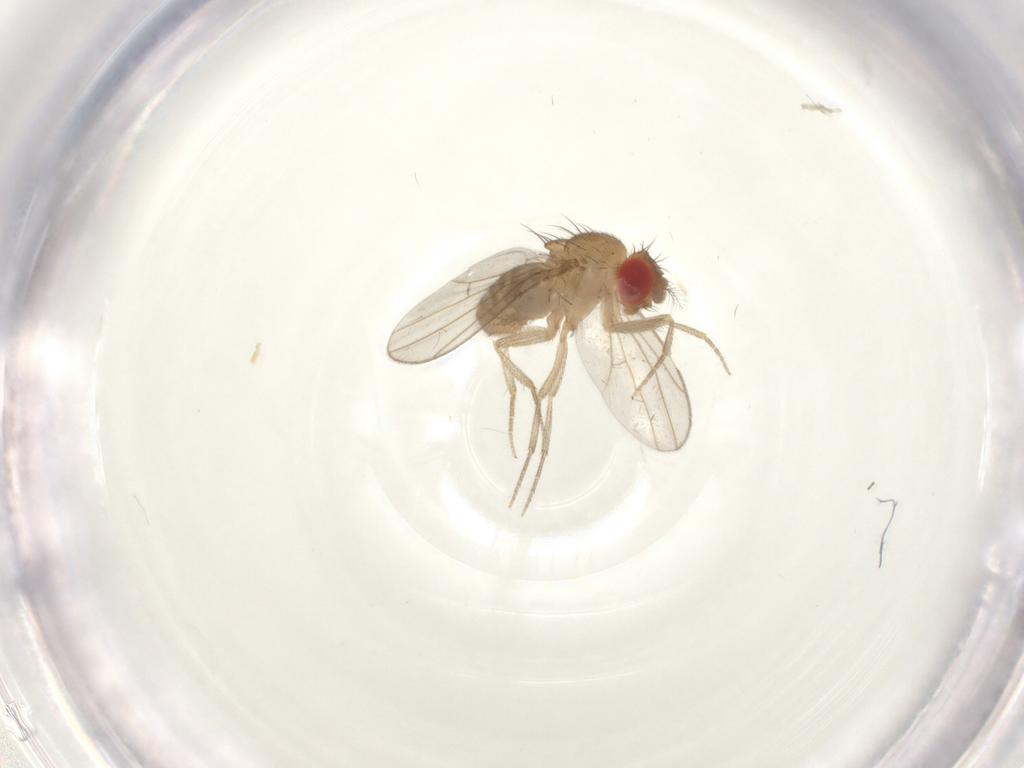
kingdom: Animalia
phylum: Arthropoda
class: Insecta
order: Diptera
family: Drosophilidae
